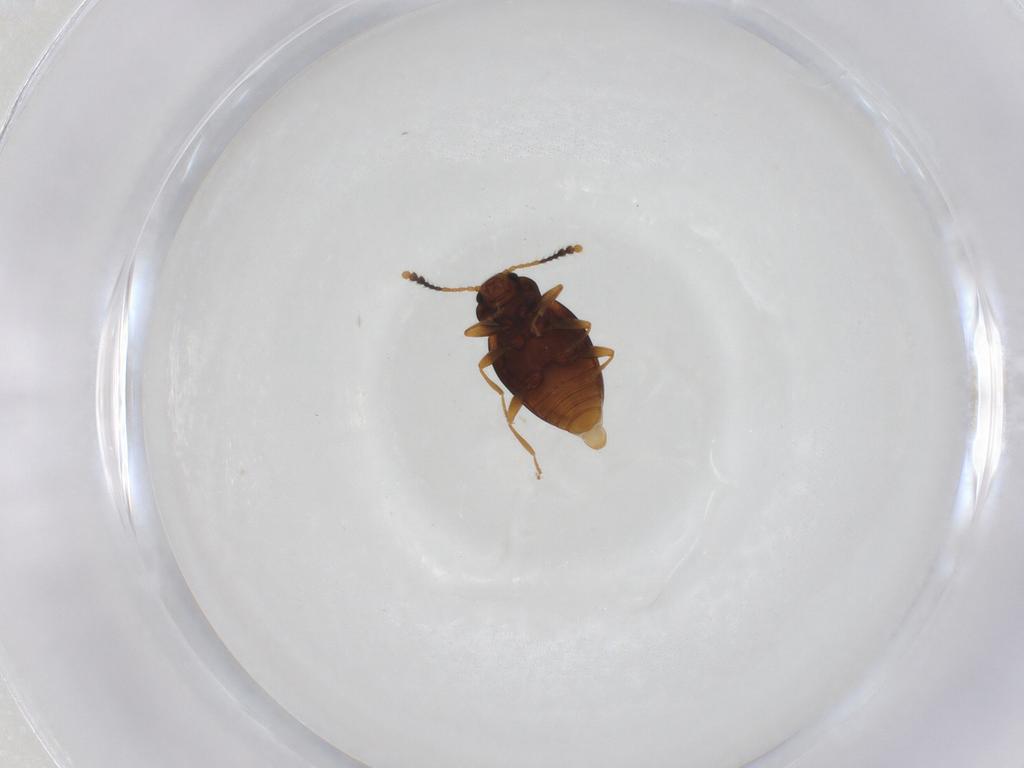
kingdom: Animalia
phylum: Arthropoda
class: Insecta
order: Coleoptera
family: Erotylidae
